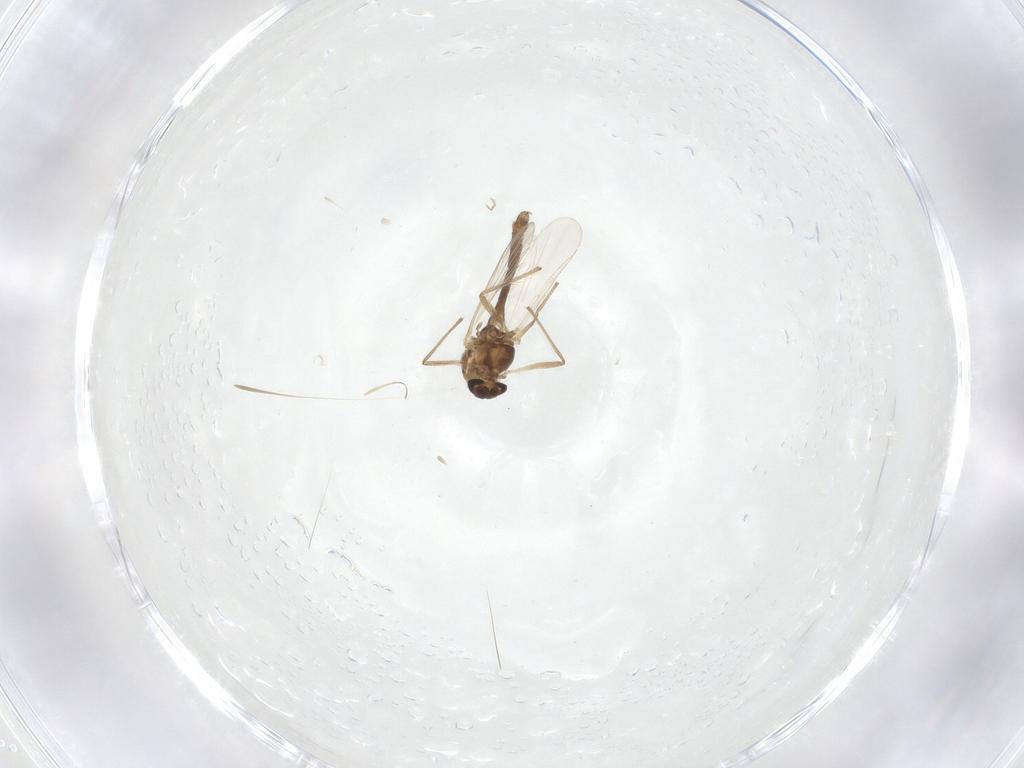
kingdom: Animalia
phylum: Arthropoda
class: Insecta
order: Diptera
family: Chironomidae
